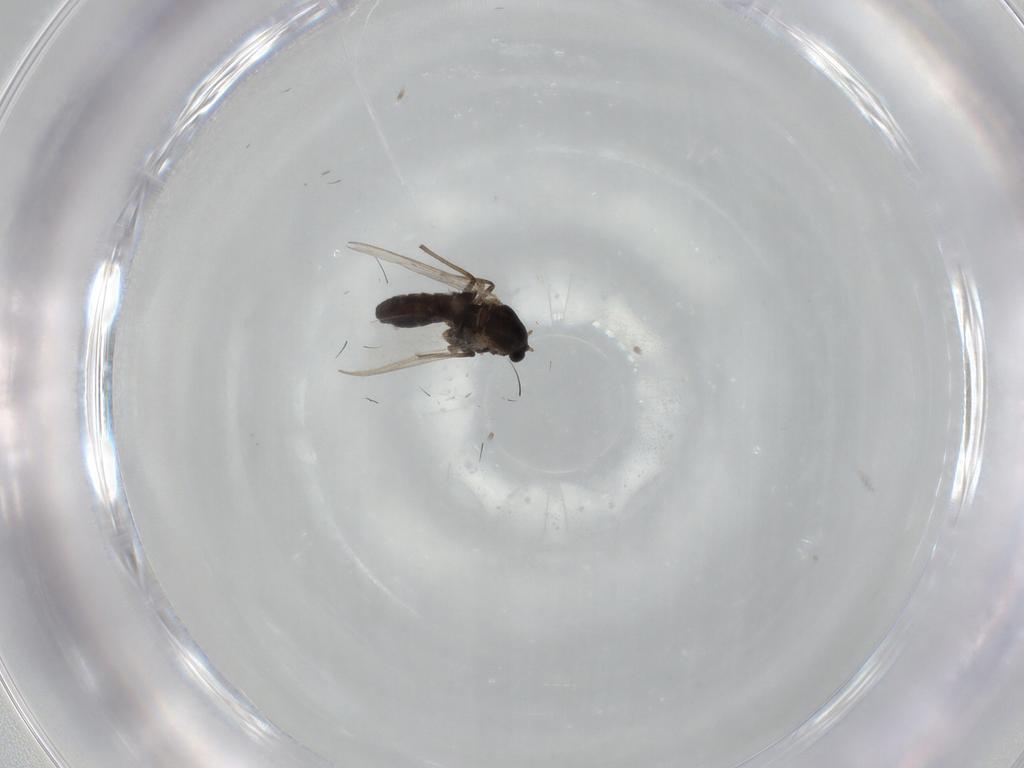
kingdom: Animalia
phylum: Arthropoda
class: Insecta
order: Diptera
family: Chironomidae
